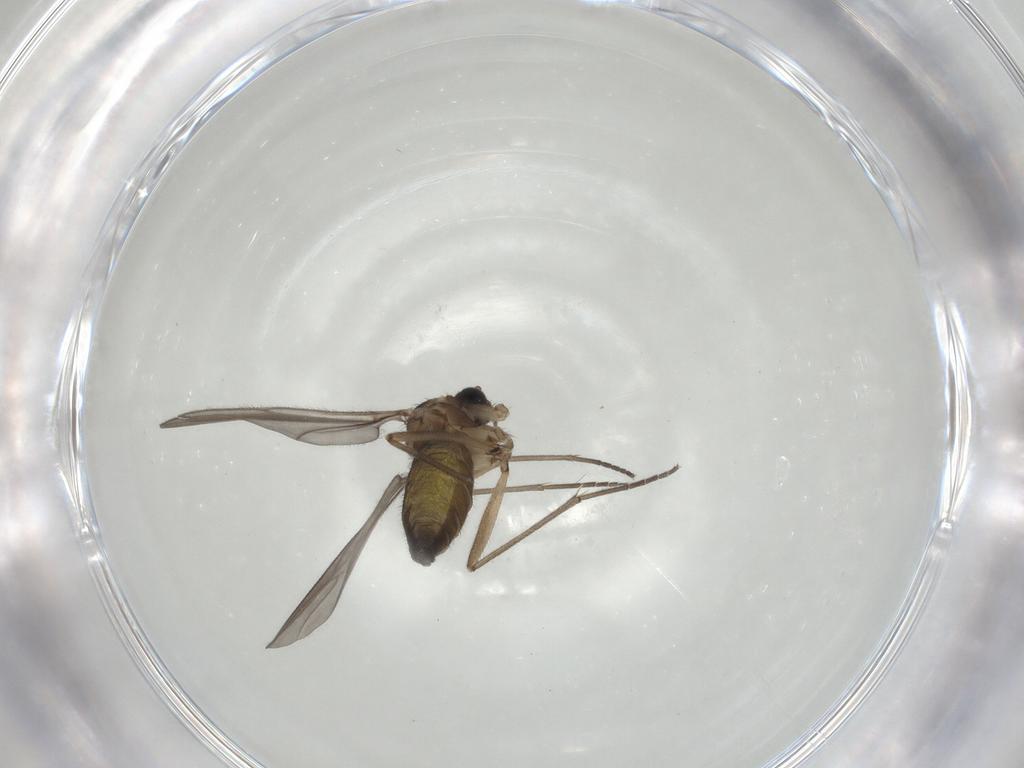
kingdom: Animalia
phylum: Arthropoda
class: Insecta
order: Diptera
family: Sciaridae
